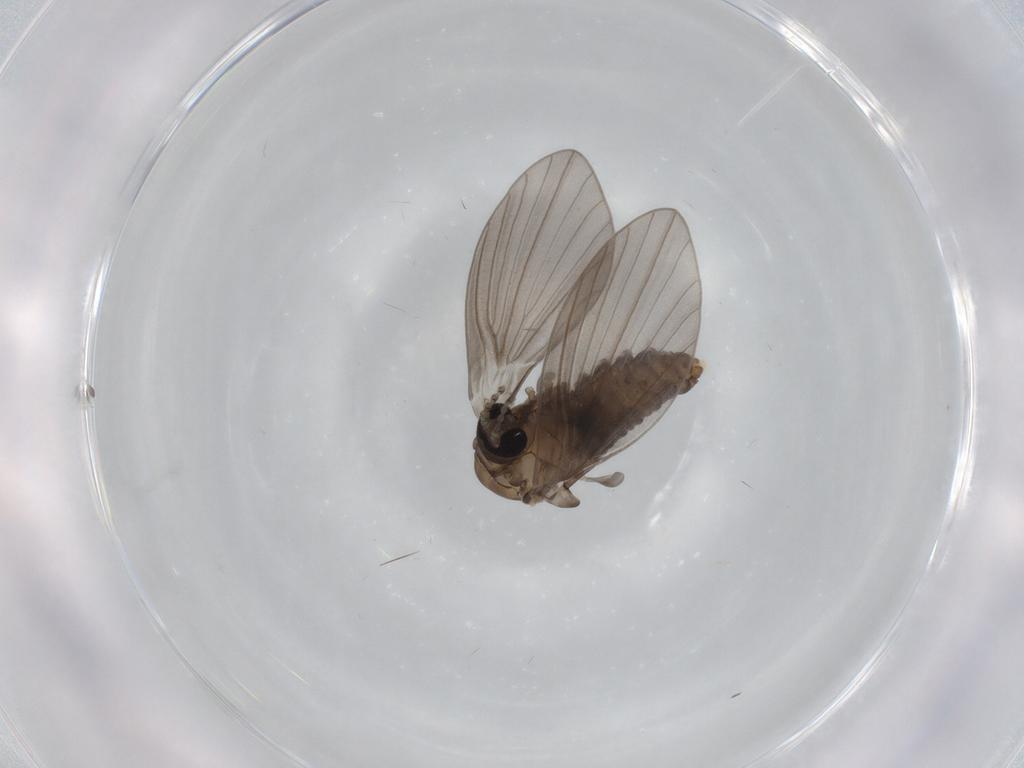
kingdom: Animalia
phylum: Arthropoda
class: Insecta
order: Diptera
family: Psychodidae
